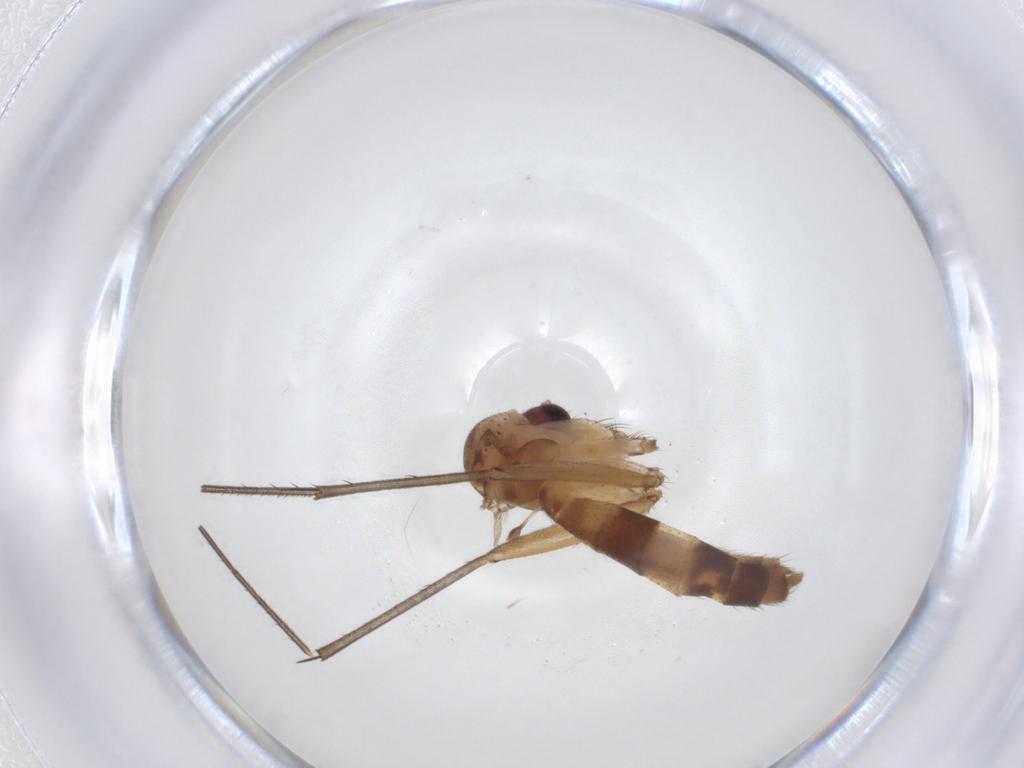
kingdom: Animalia
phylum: Arthropoda
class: Insecta
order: Diptera
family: Mycetophilidae
